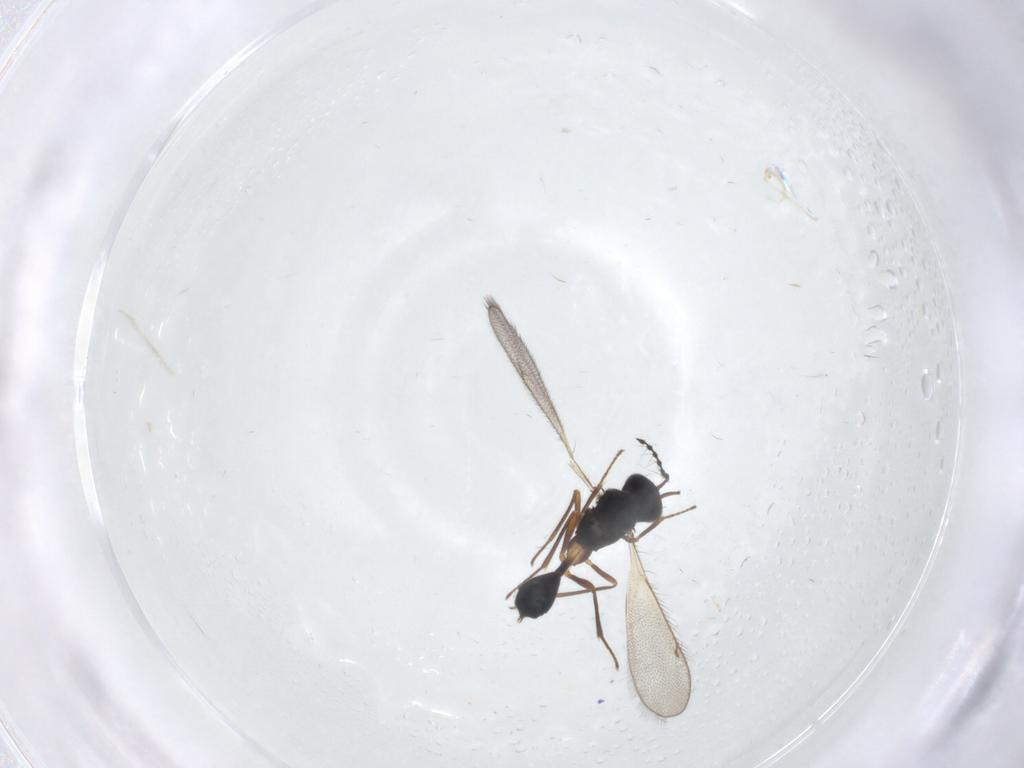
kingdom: Animalia
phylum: Arthropoda
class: Insecta
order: Hymenoptera
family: Diparidae
